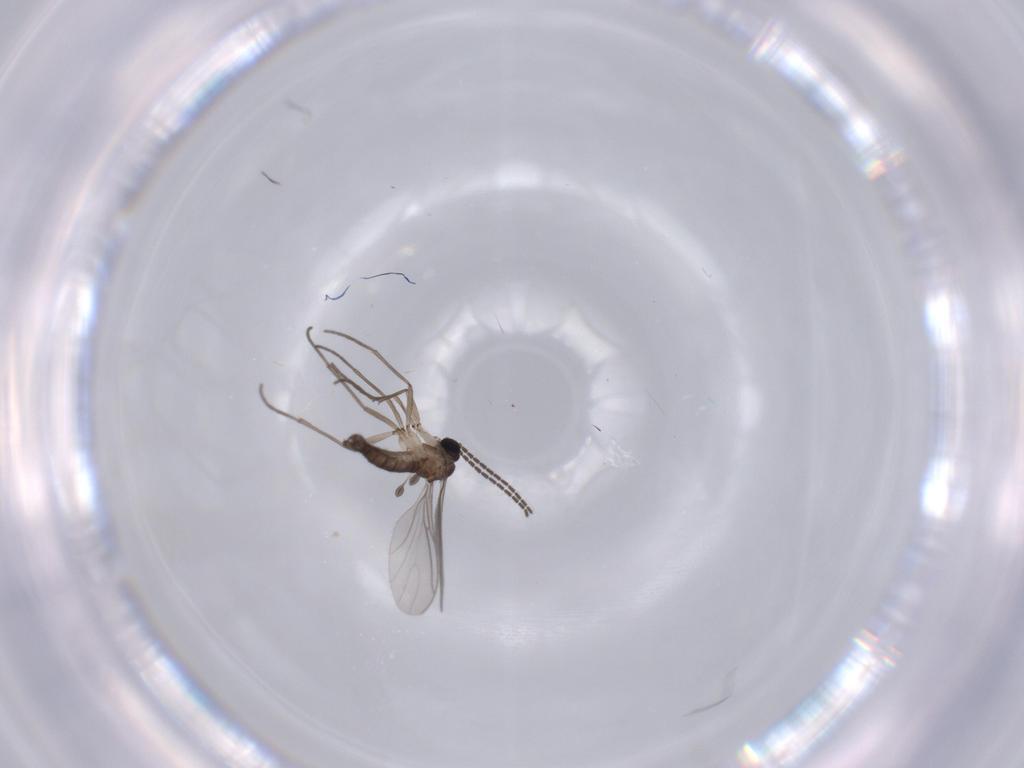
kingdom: Animalia
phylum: Arthropoda
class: Insecta
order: Diptera
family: Sciaridae
